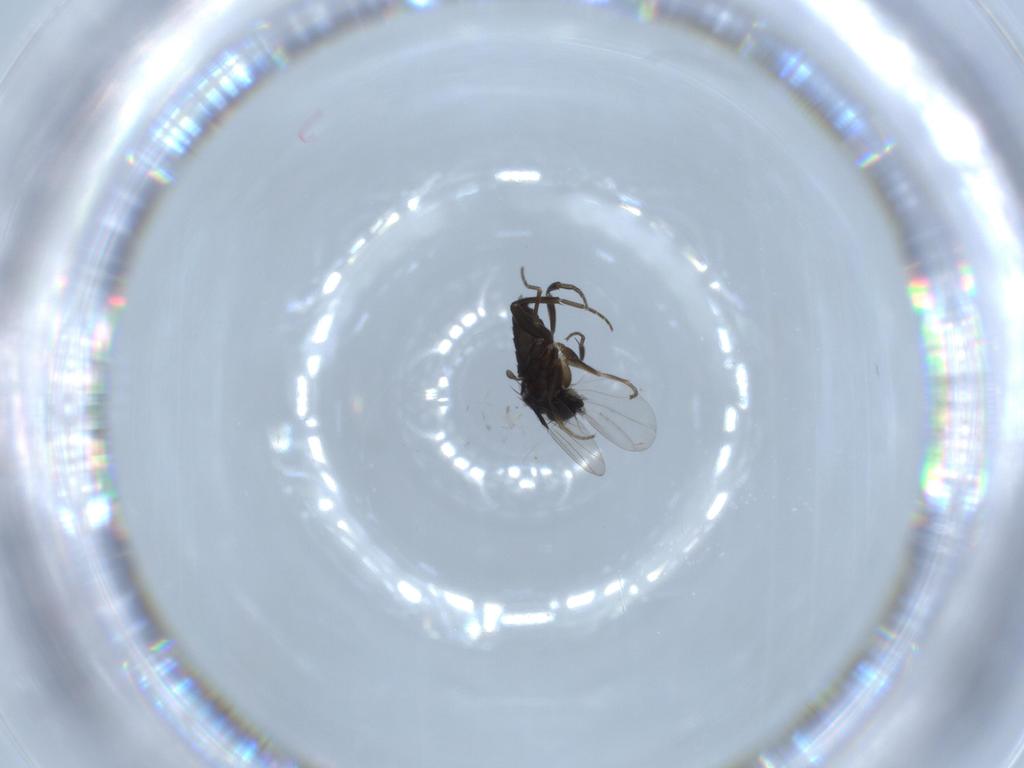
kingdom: Animalia
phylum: Arthropoda
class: Insecta
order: Diptera
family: Phoridae
